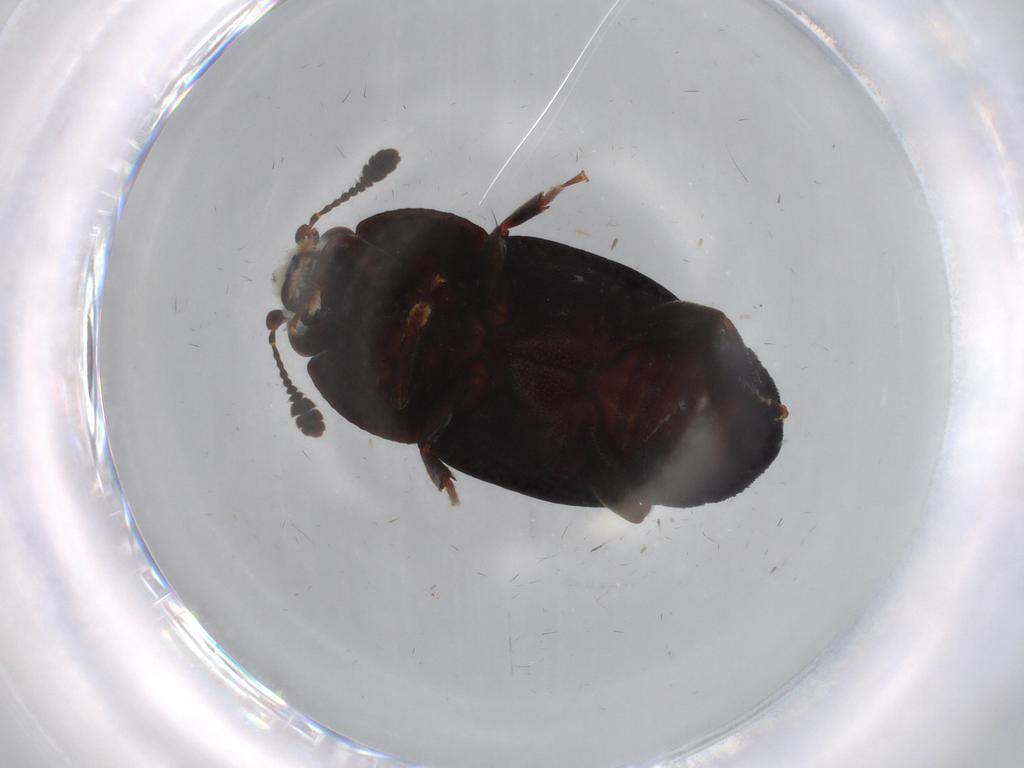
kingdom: Animalia
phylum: Arthropoda
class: Insecta
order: Coleoptera
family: Nitidulidae
